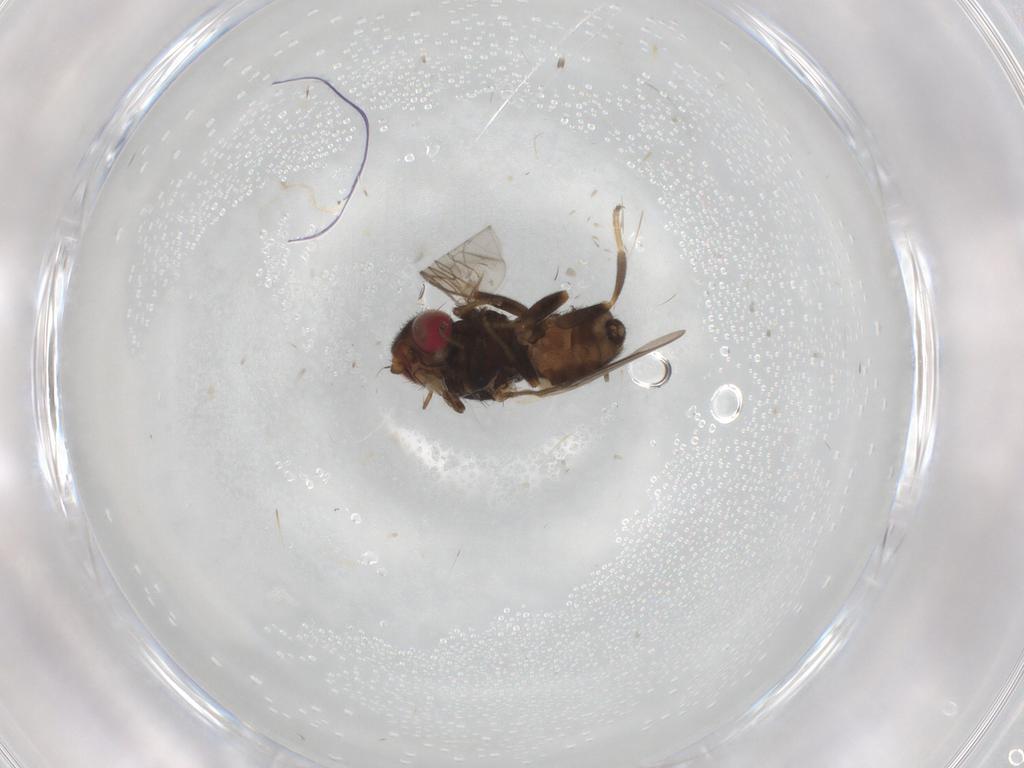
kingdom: Animalia
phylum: Arthropoda
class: Insecta
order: Diptera
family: Chloropidae
